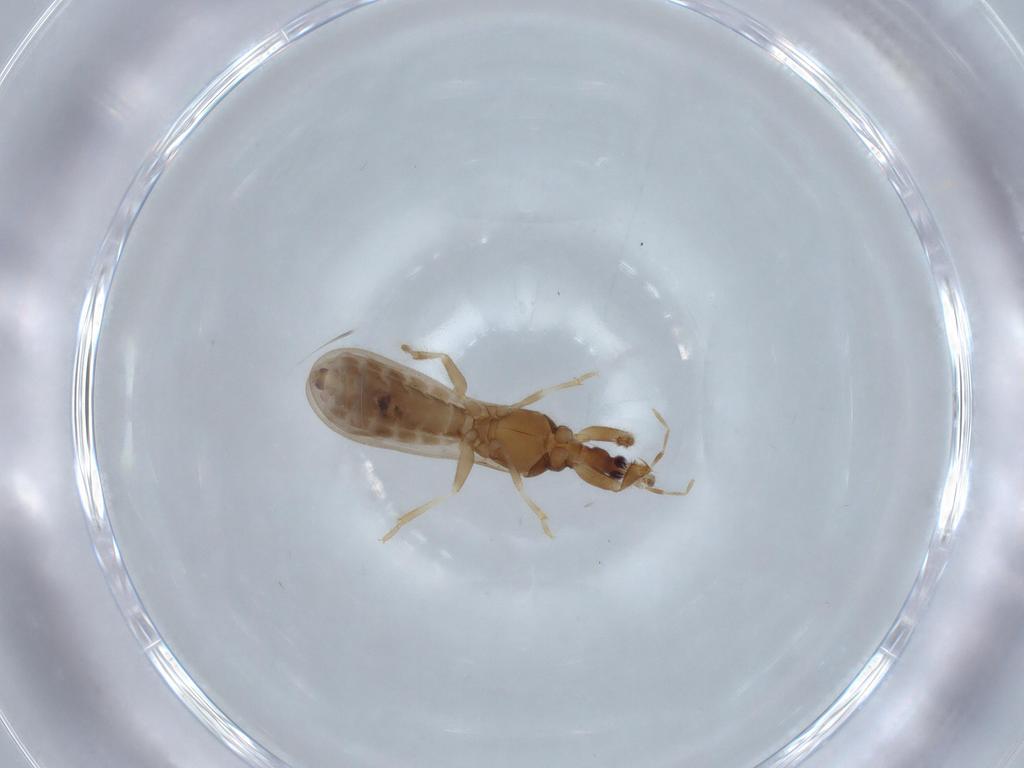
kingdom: Animalia
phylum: Arthropoda
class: Insecta
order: Hemiptera
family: Enicocephalidae
